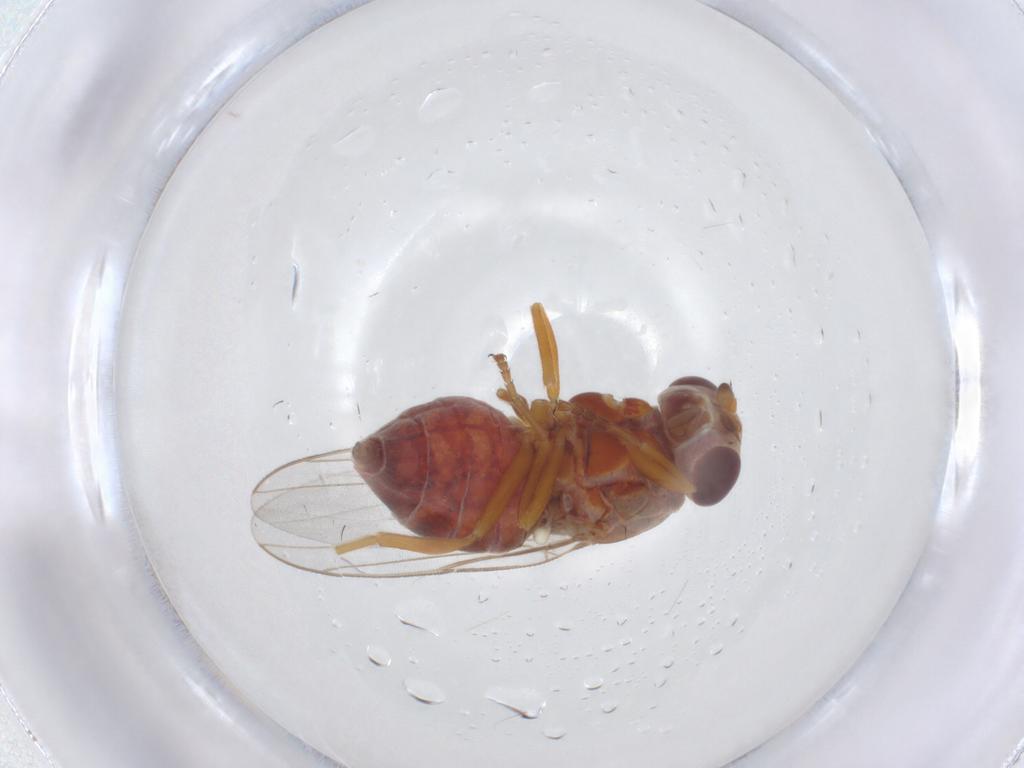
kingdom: Animalia
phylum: Arthropoda
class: Insecta
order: Diptera
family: Chloropidae
